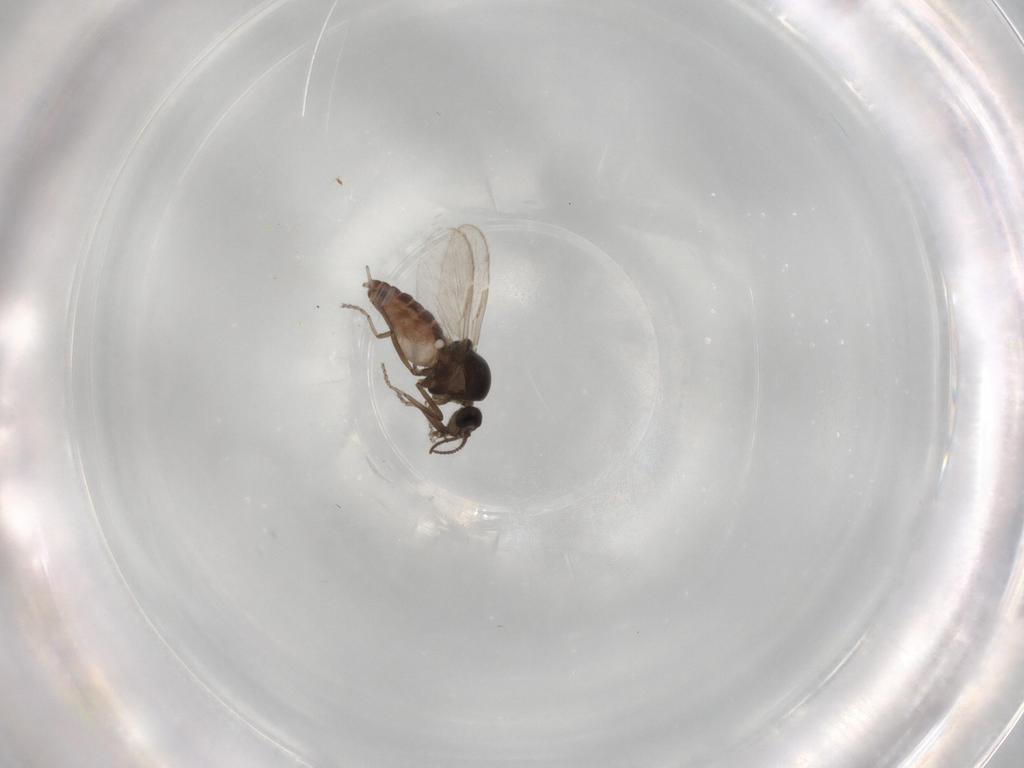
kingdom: Animalia
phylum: Arthropoda
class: Insecta
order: Diptera
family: Ceratopogonidae
